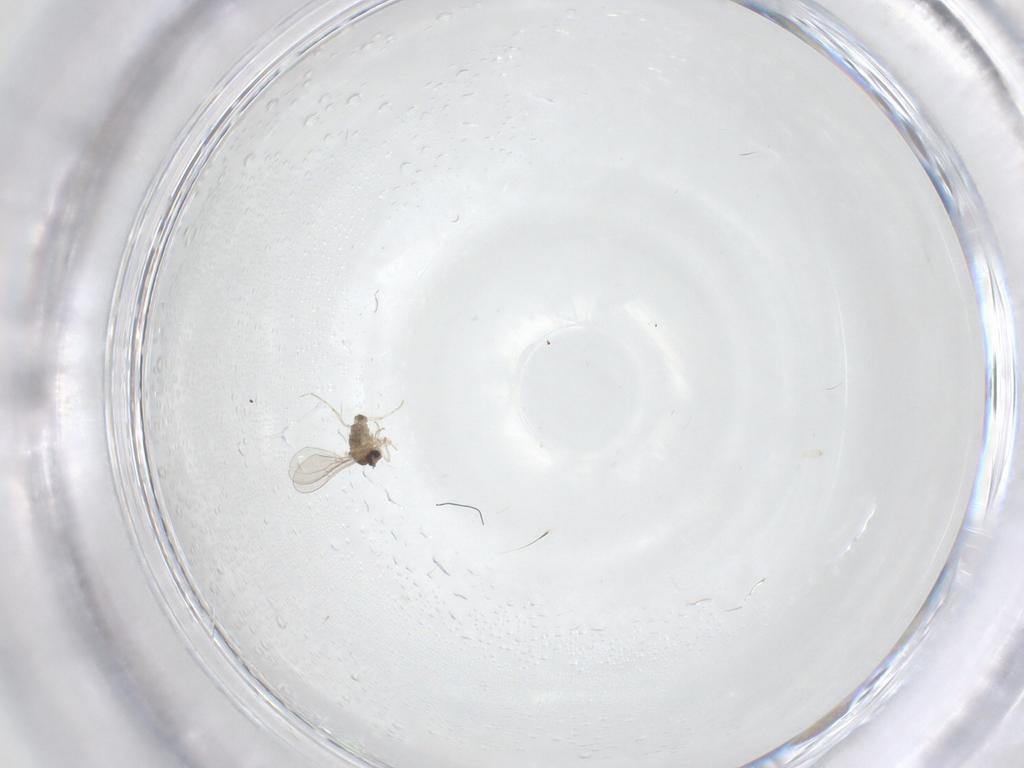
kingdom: Animalia
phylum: Arthropoda
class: Insecta
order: Diptera
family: Cecidomyiidae
